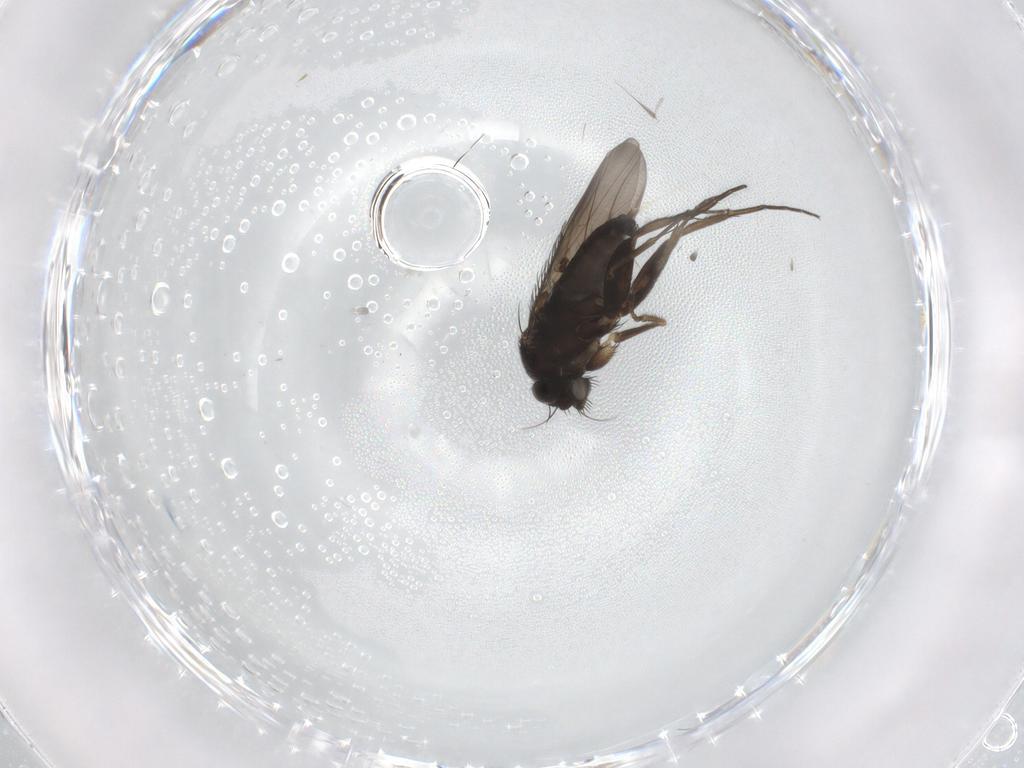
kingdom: Animalia
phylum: Arthropoda
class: Insecta
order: Diptera
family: Phoridae
